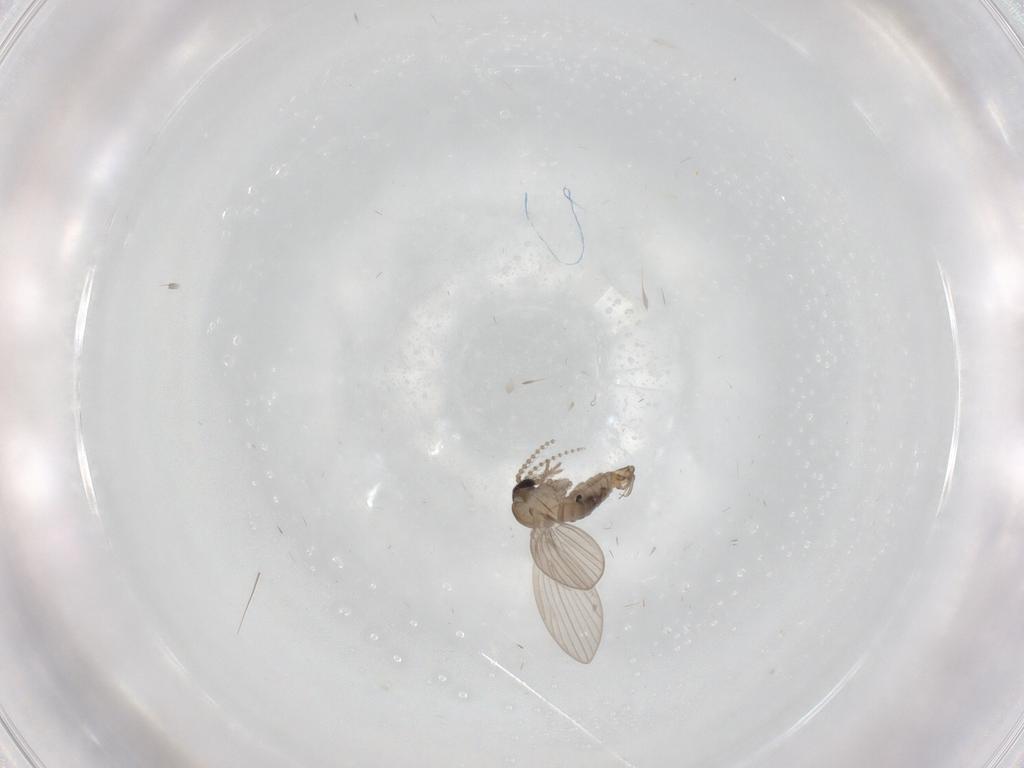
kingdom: Animalia
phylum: Arthropoda
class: Insecta
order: Diptera
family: Psychodidae
